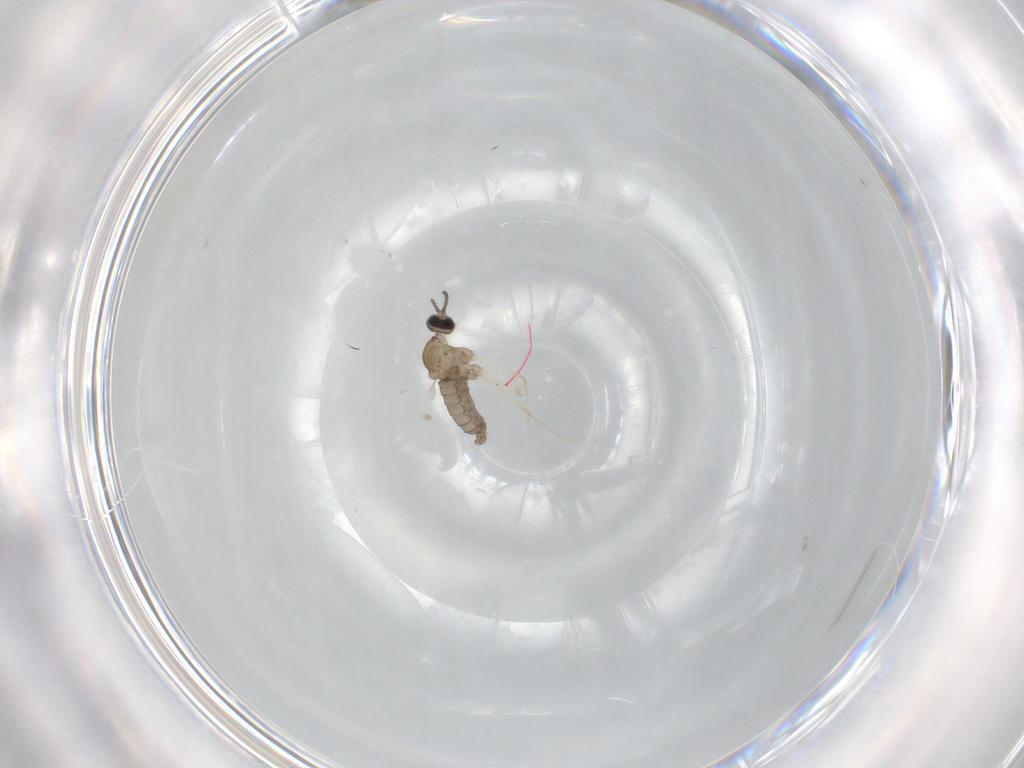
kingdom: Animalia
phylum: Arthropoda
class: Insecta
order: Diptera
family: Cecidomyiidae
